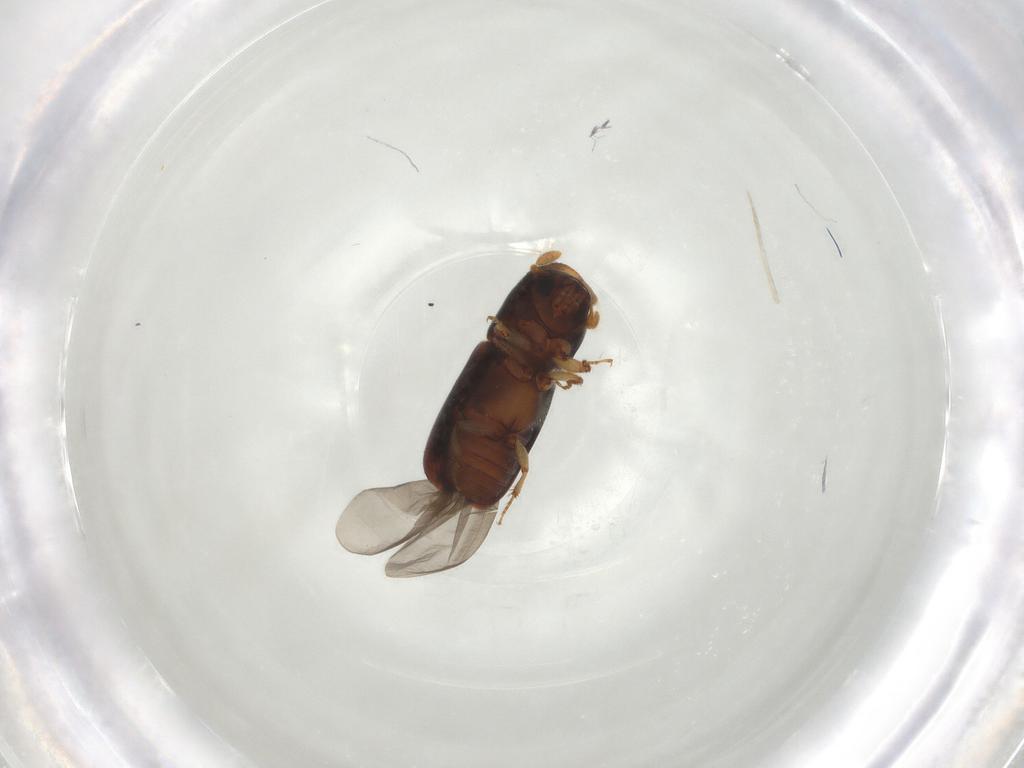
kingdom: Animalia
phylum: Arthropoda
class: Insecta
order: Coleoptera
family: Curculionidae
